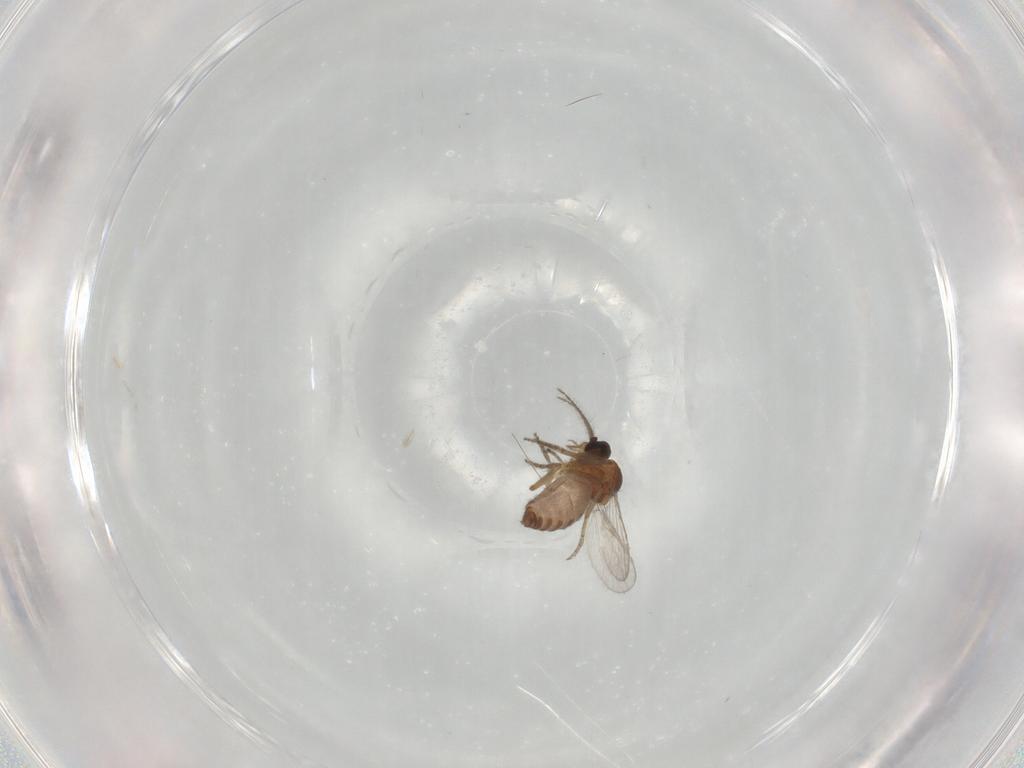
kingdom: Animalia
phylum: Arthropoda
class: Insecta
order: Diptera
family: Ceratopogonidae
